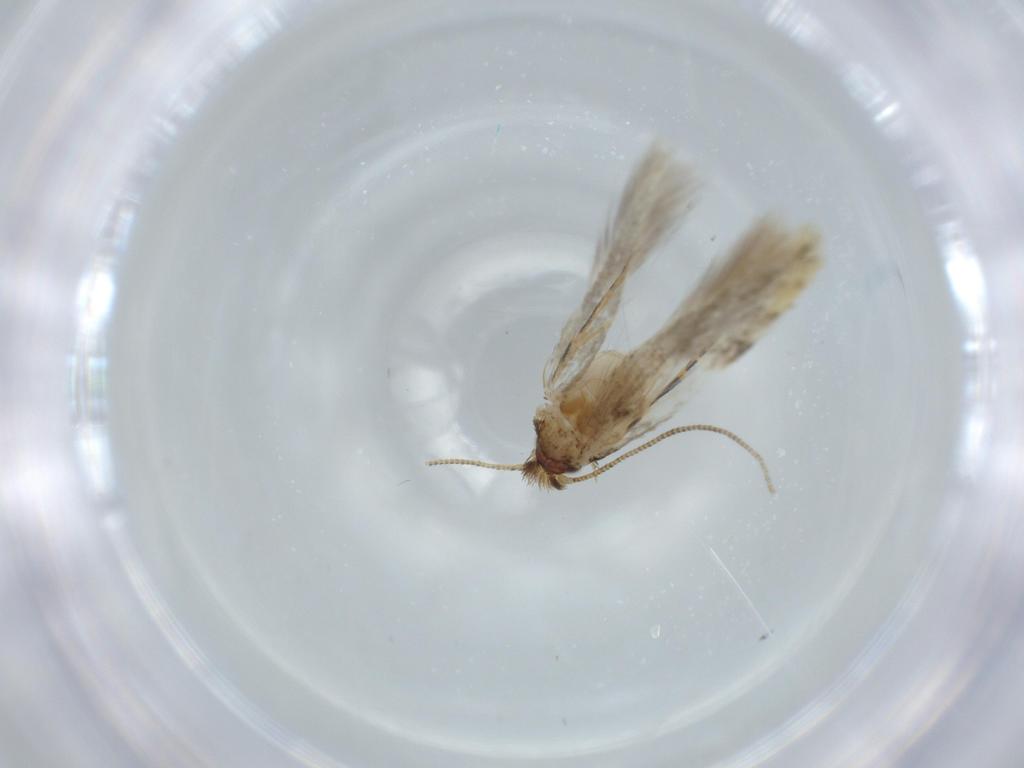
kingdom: Animalia
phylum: Arthropoda
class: Insecta
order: Lepidoptera
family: Tineidae
